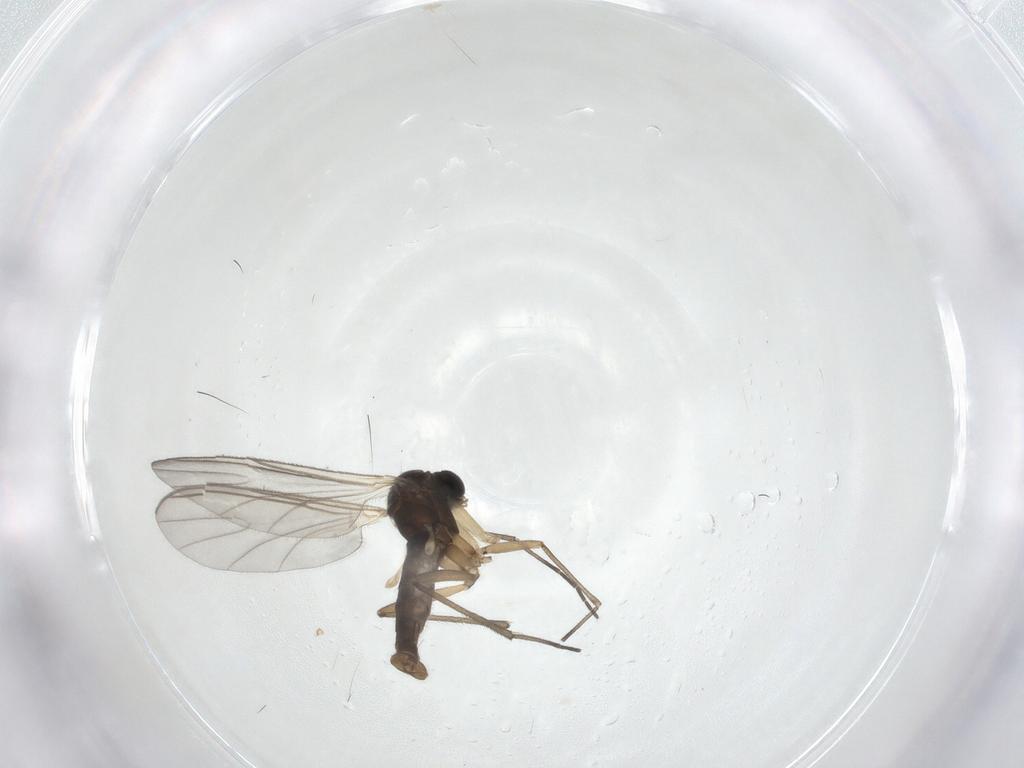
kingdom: Animalia
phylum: Arthropoda
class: Insecta
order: Diptera
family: Sciaridae
